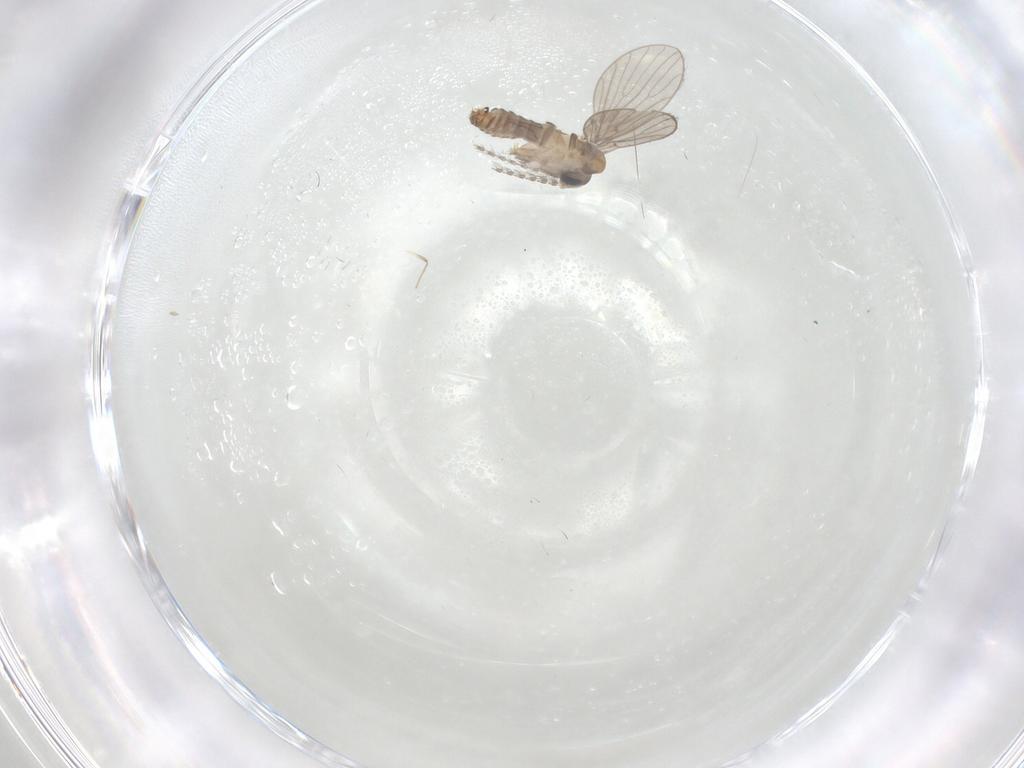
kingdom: Animalia
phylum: Arthropoda
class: Insecta
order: Diptera
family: Psychodidae
